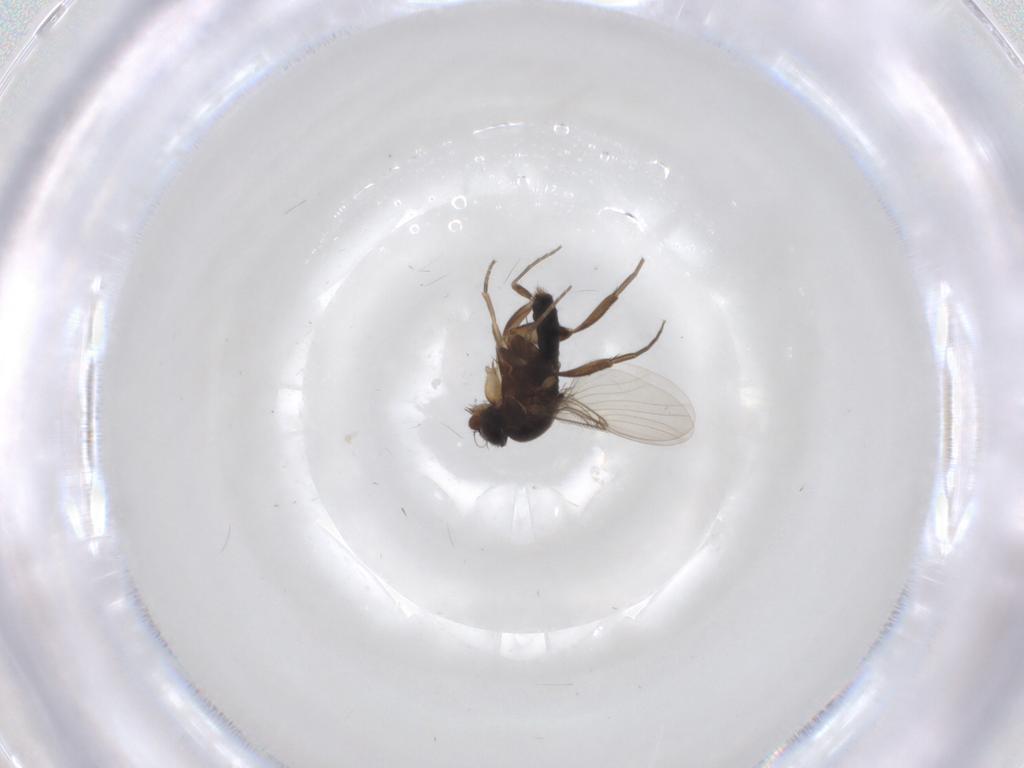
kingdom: Animalia
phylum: Arthropoda
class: Insecta
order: Diptera
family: Phoridae
